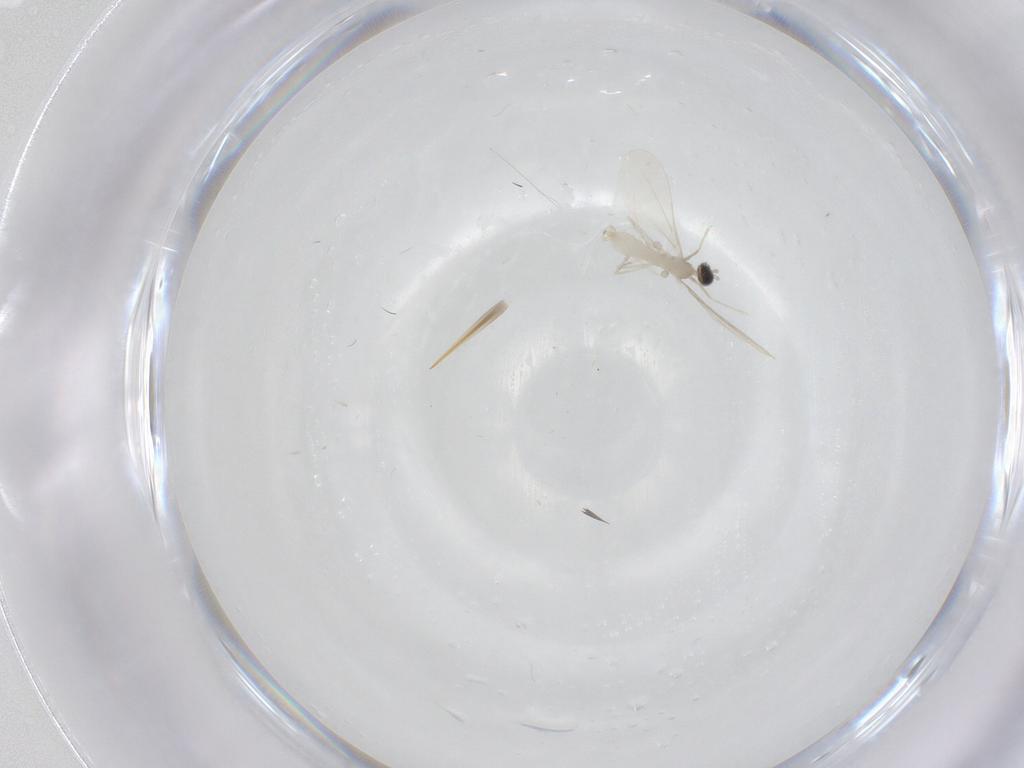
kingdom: Animalia
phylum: Arthropoda
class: Insecta
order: Diptera
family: Cecidomyiidae
